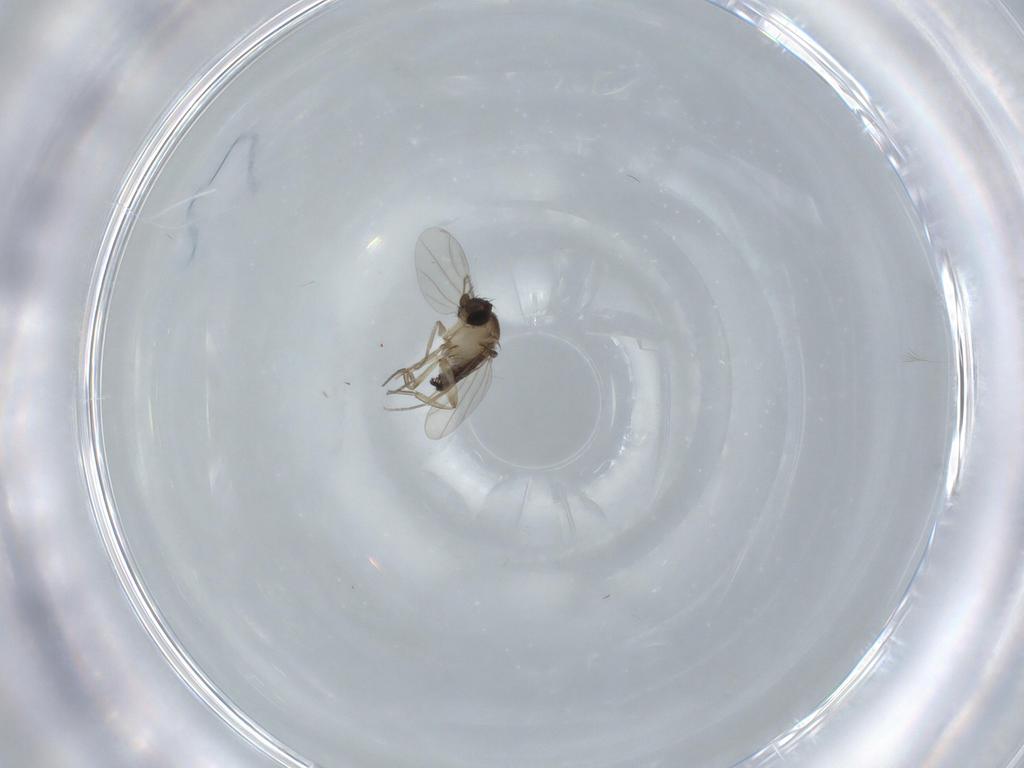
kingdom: Animalia
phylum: Arthropoda
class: Insecta
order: Diptera
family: Phoridae
